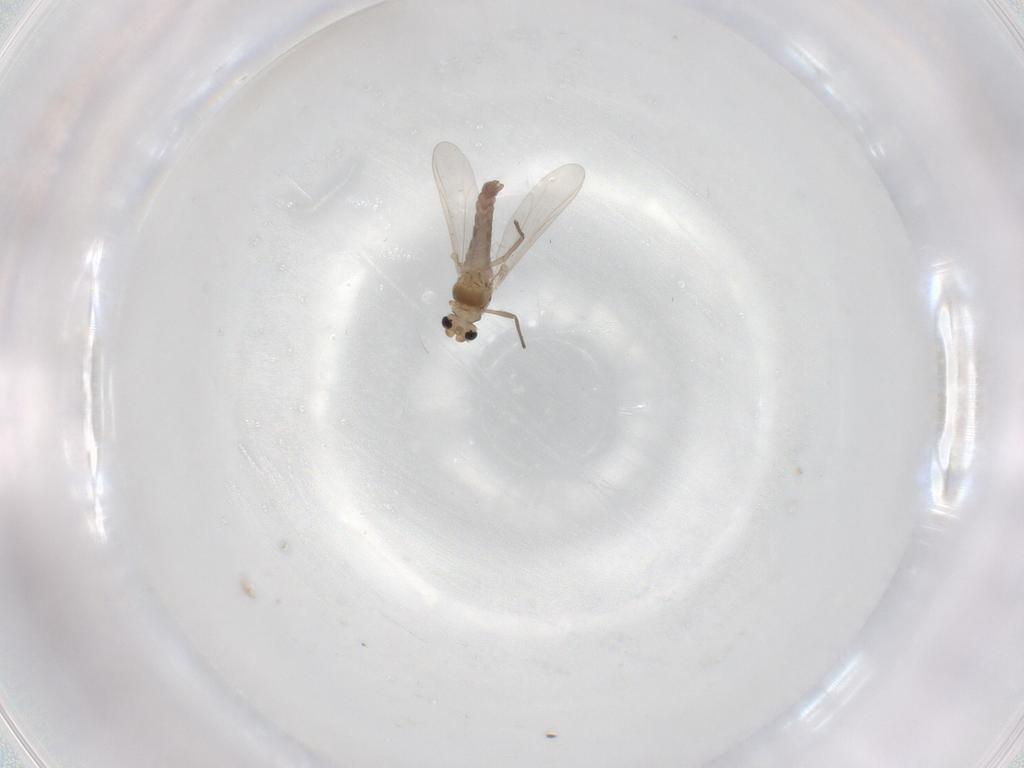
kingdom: Animalia
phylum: Arthropoda
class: Insecta
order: Diptera
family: Chironomidae
